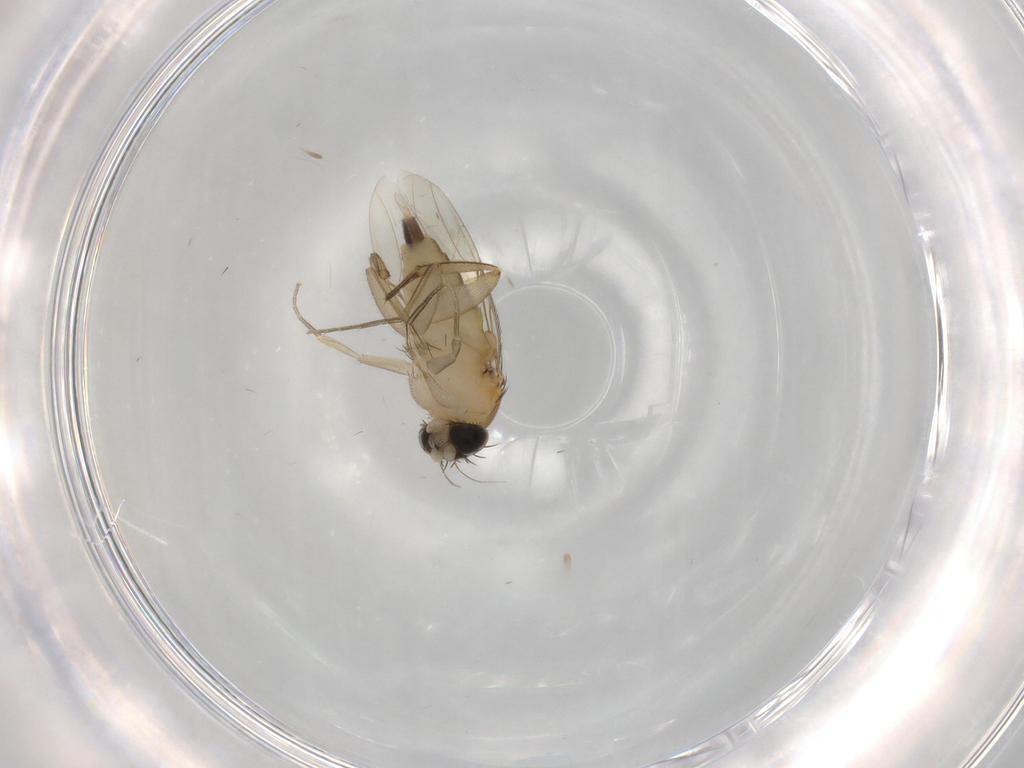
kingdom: Animalia
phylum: Arthropoda
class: Insecta
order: Diptera
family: Phoridae
